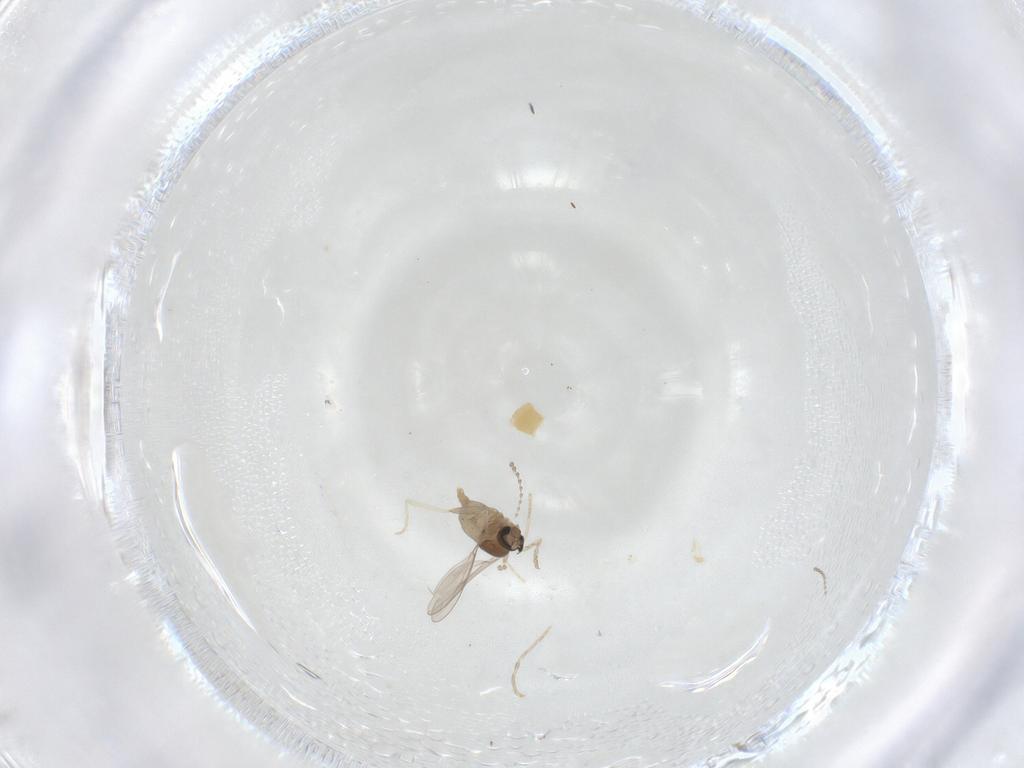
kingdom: Animalia
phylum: Arthropoda
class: Insecta
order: Diptera
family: Cecidomyiidae
